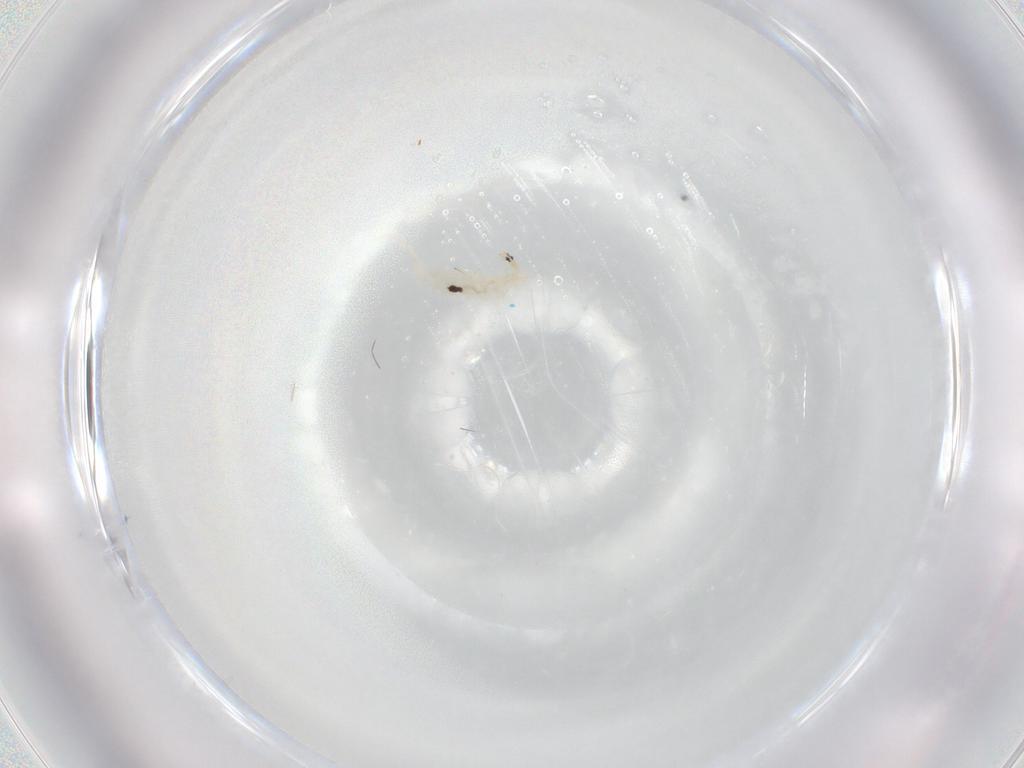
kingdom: Animalia
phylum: Arthropoda
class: Collembola
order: Entomobryomorpha
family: Entomobryidae
